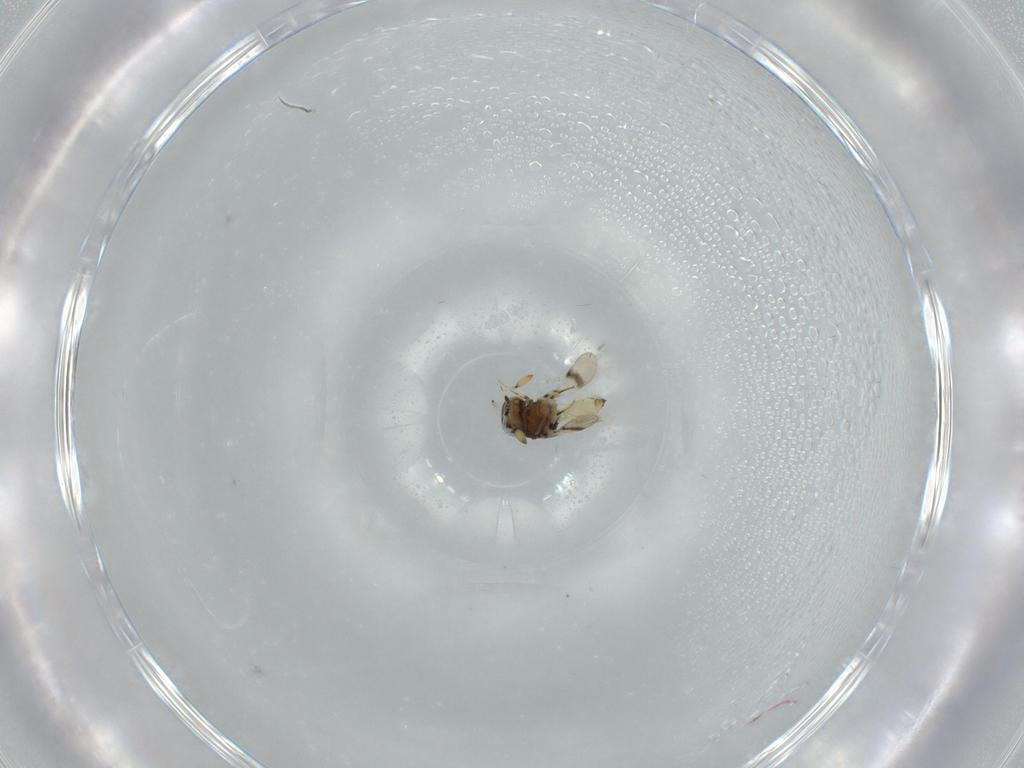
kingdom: Animalia
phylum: Arthropoda
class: Insecta
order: Hymenoptera
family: Scelionidae
